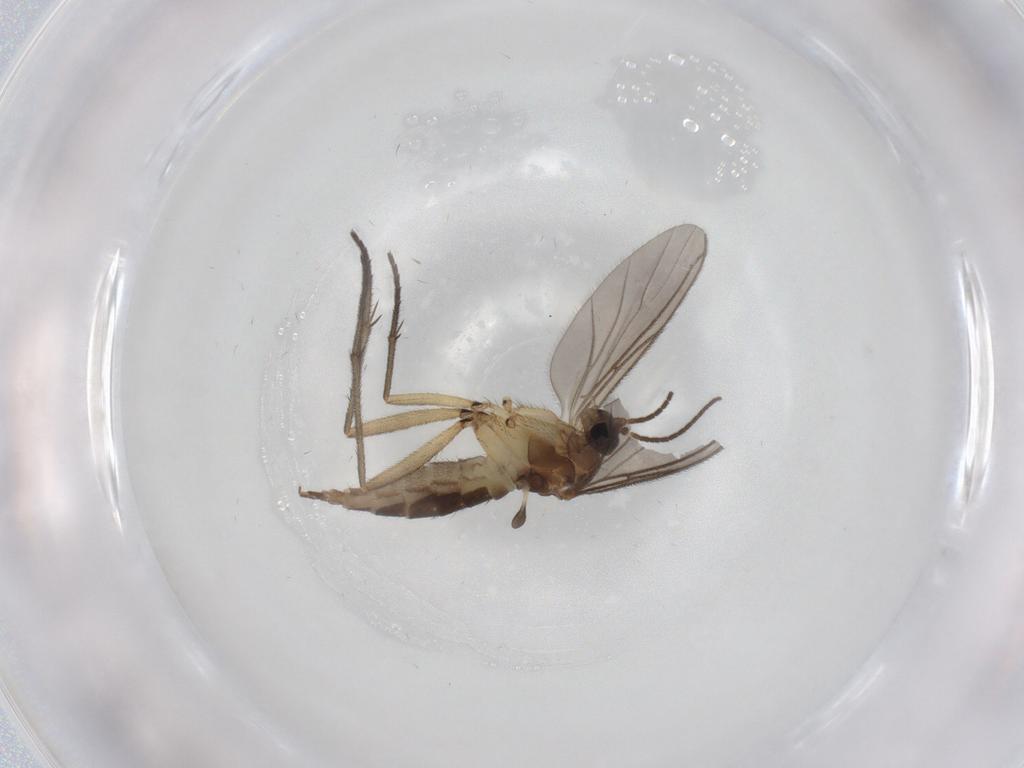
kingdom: Animalia
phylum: Arthropoda
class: Insecta
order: Diptera
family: Sciaridae
